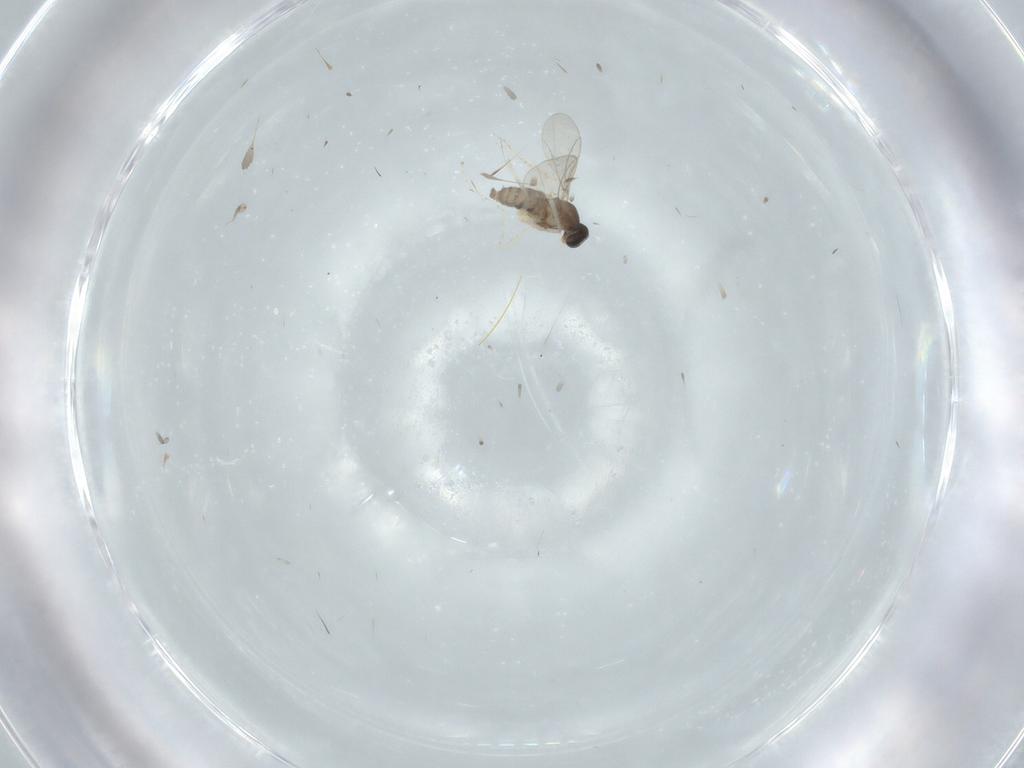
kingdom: Animalia
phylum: Arthropoda
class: Insecta
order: Diptera
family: Cecidomyiidae
